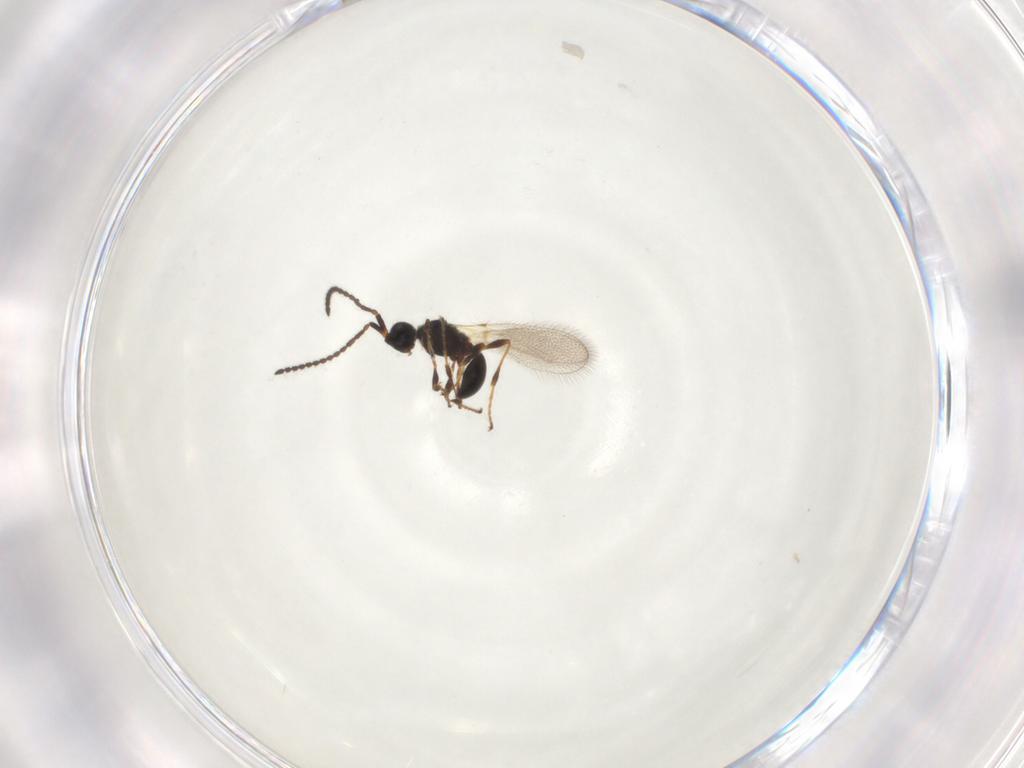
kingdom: Animalia
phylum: Arthropoda
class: Insecta
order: Hymenoptera
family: Diapriidae
